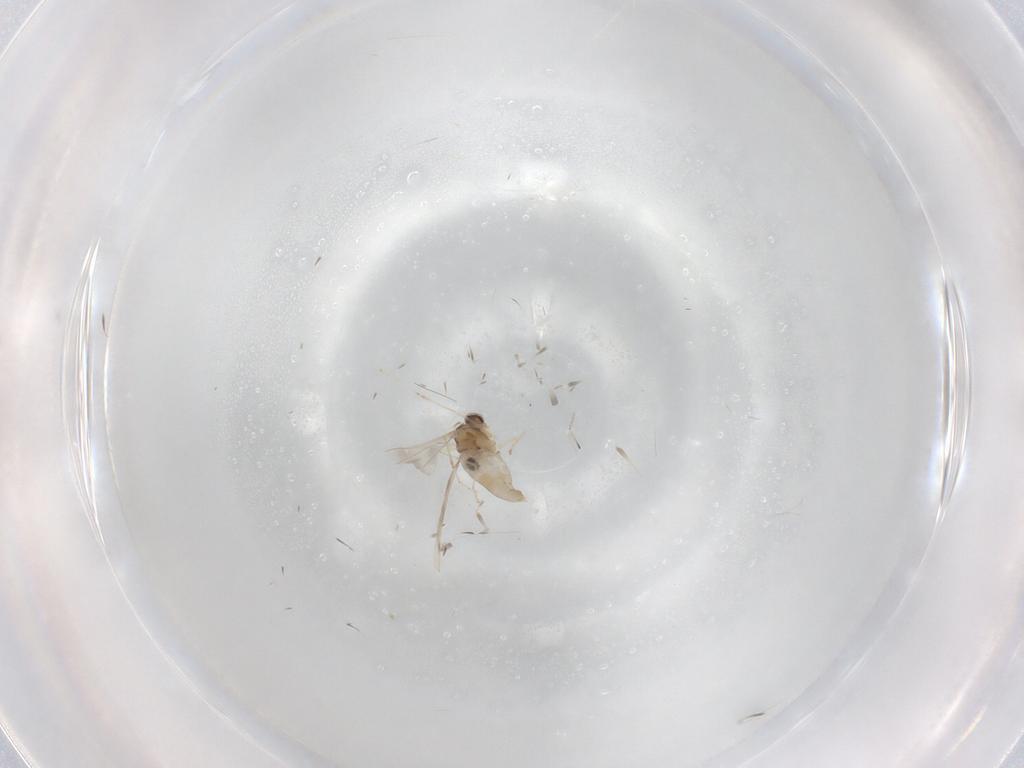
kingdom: Animalia
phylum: Arthropoda
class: Insecta
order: Diptera
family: Cecidomyiidae
